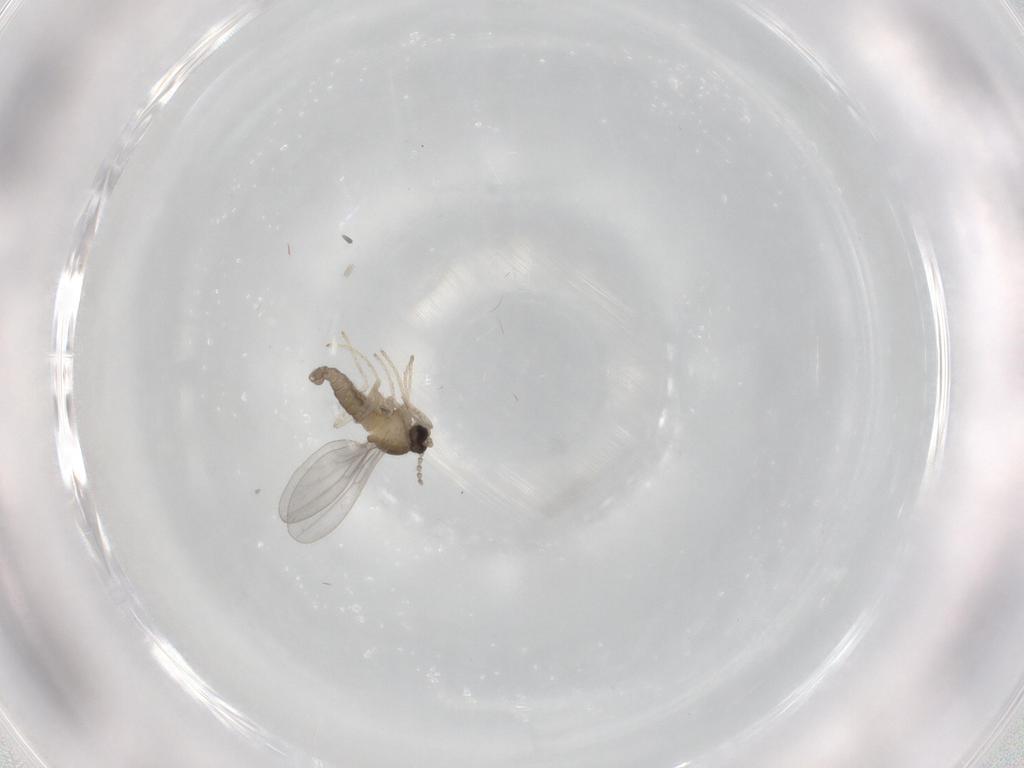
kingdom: Animalia
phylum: Arthropoda
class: Insecta
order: Diptera
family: Cecidomyiidae
